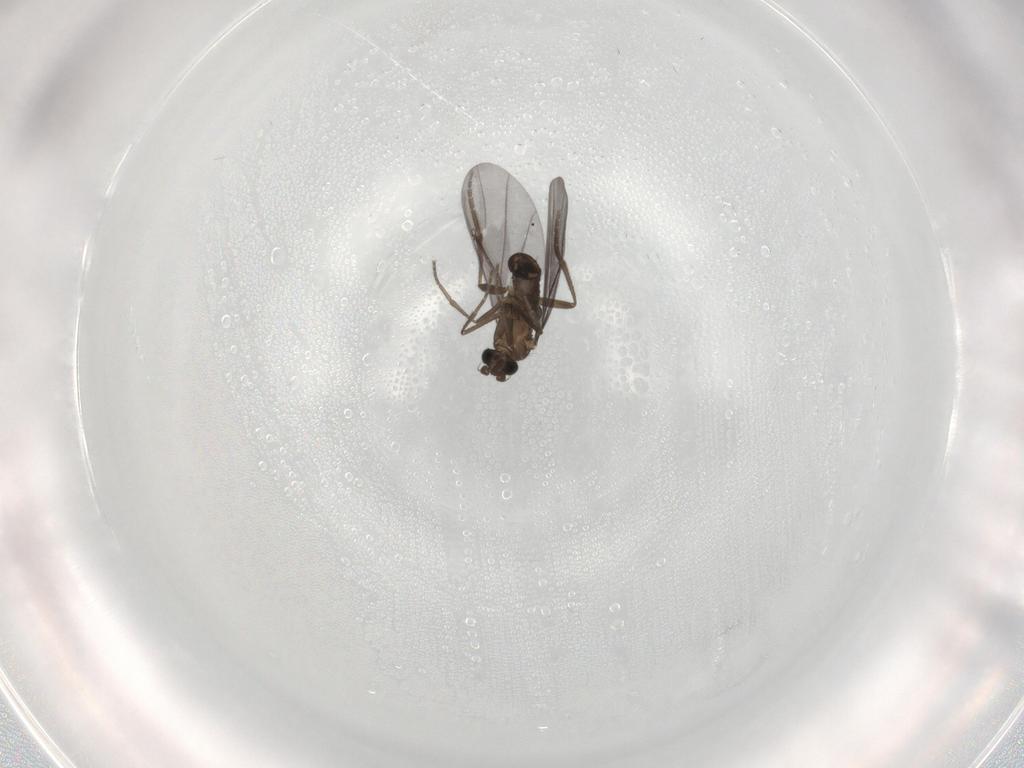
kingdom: Animalia
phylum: Arthropoda
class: Insecta
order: Diptera
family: Phoridae
